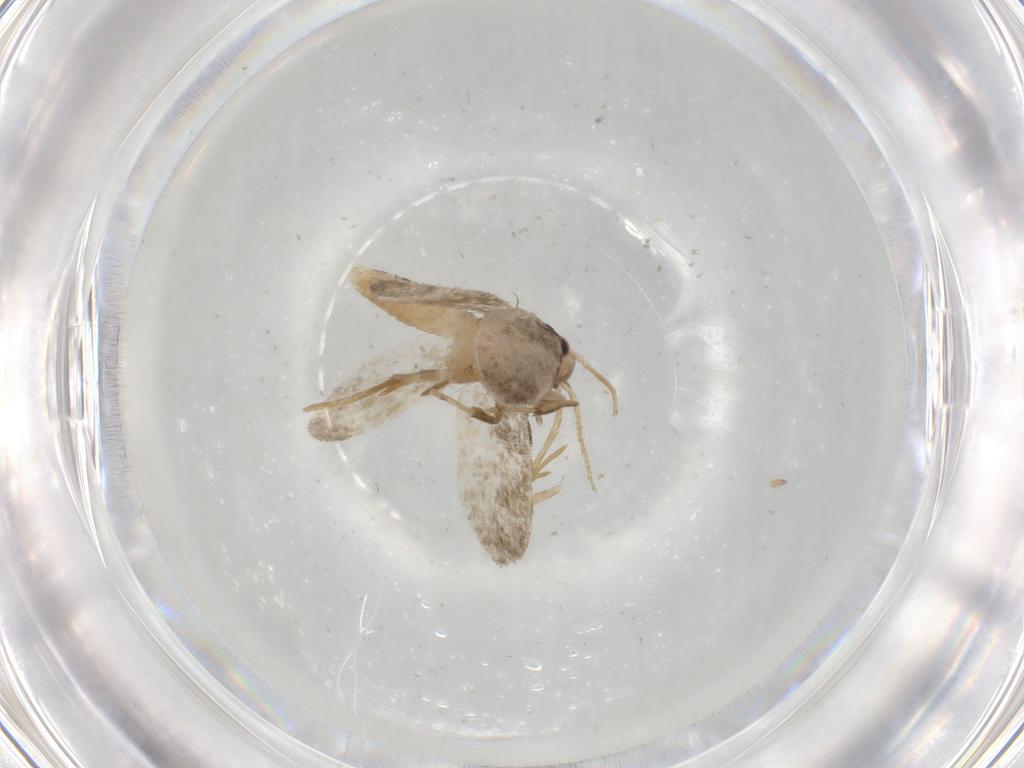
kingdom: Animalia
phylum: Arthropoda
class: Insecta
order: Lepidoptera
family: Psychidae
